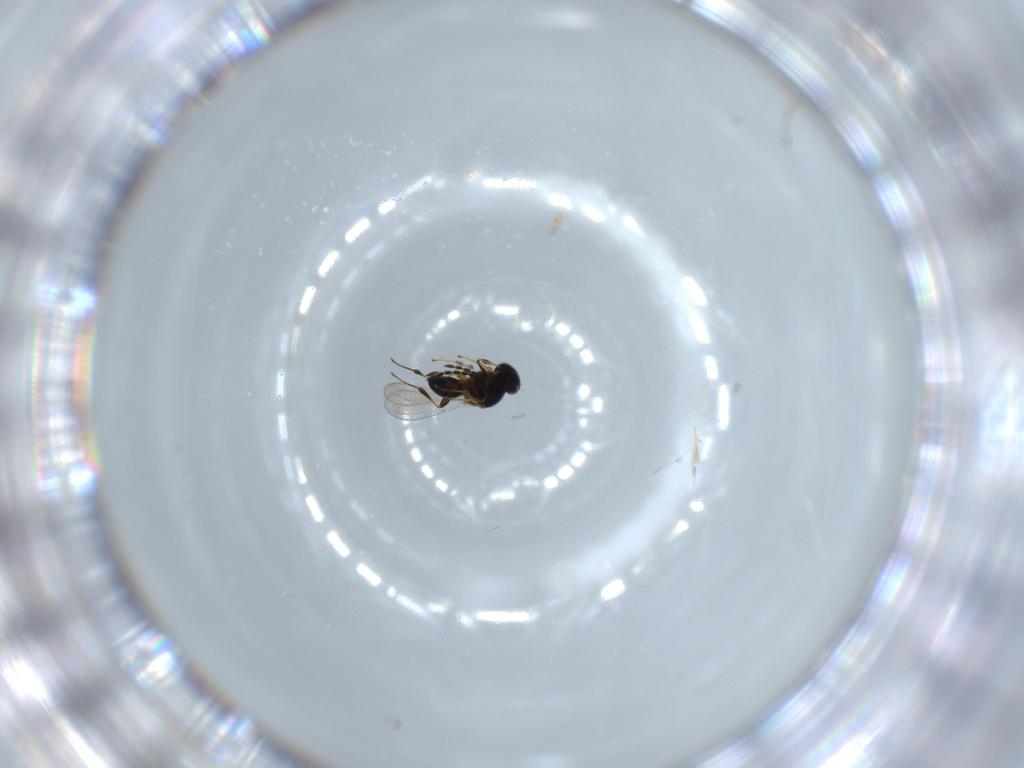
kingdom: Animalia
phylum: Arthropoda
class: Insecta
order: Hymenoptera
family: Platygastridae
